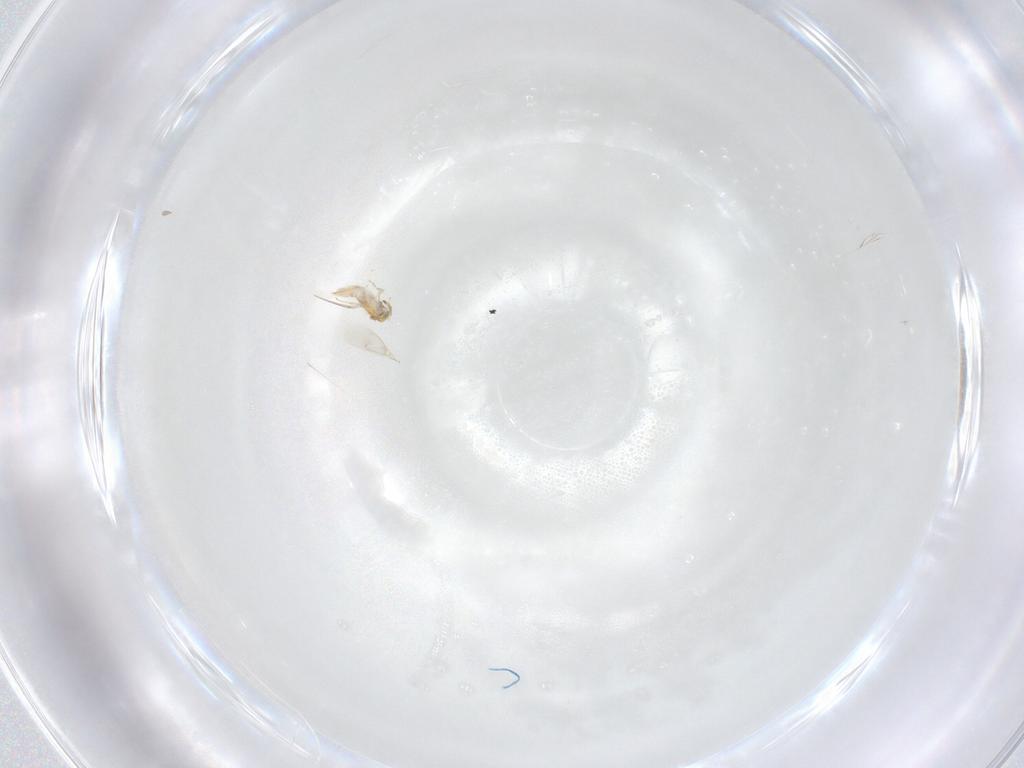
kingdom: Animalia
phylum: Arthropoda
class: Insecta
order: Hymenoptera
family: Aphelinidae
